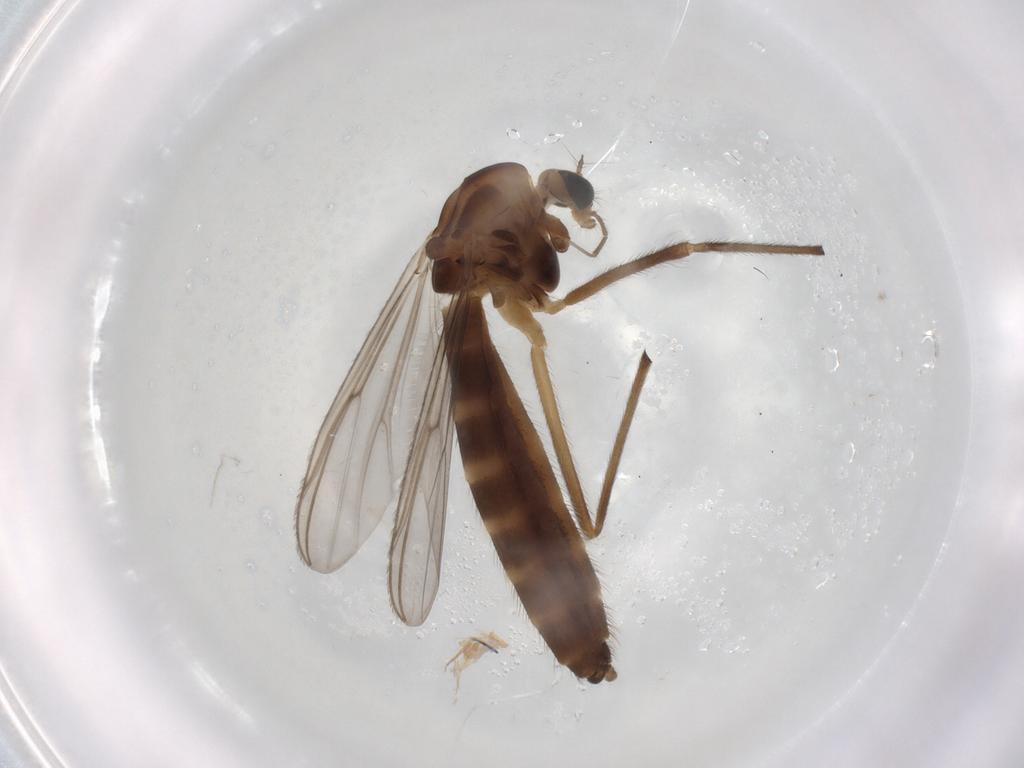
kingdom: Animalia
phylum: Arthropoda
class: Insecta
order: Diptera
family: Chironomidae
